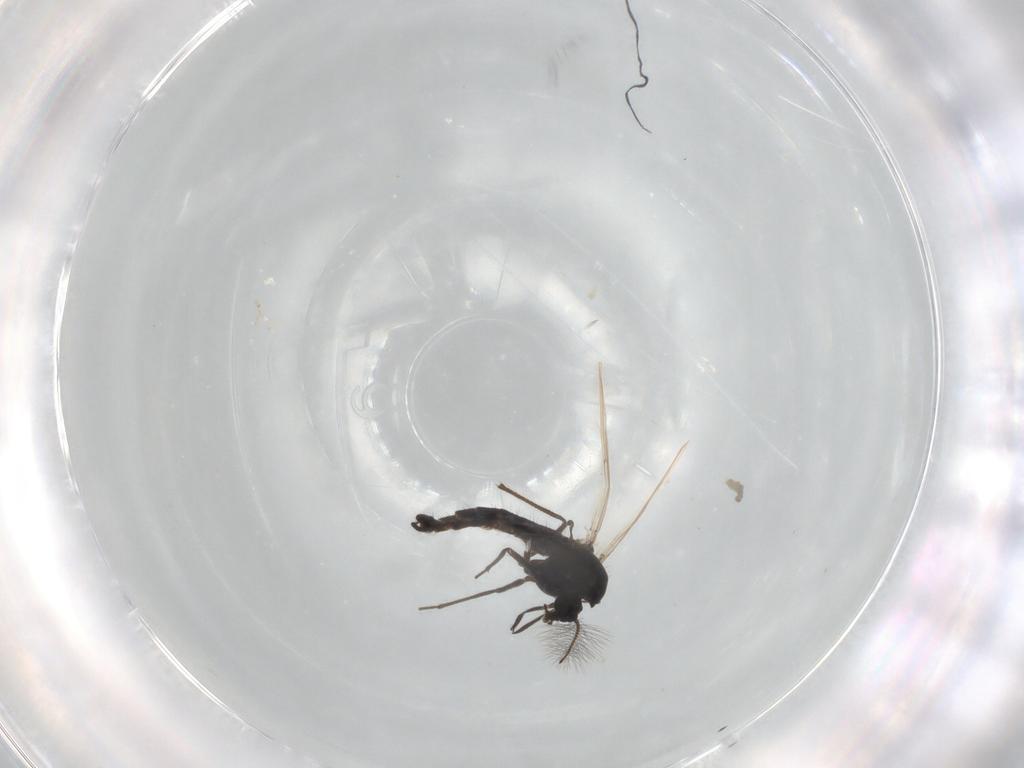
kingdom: Animalia
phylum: Arthropoda
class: Insecta
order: Diptera
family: Chironomidae
